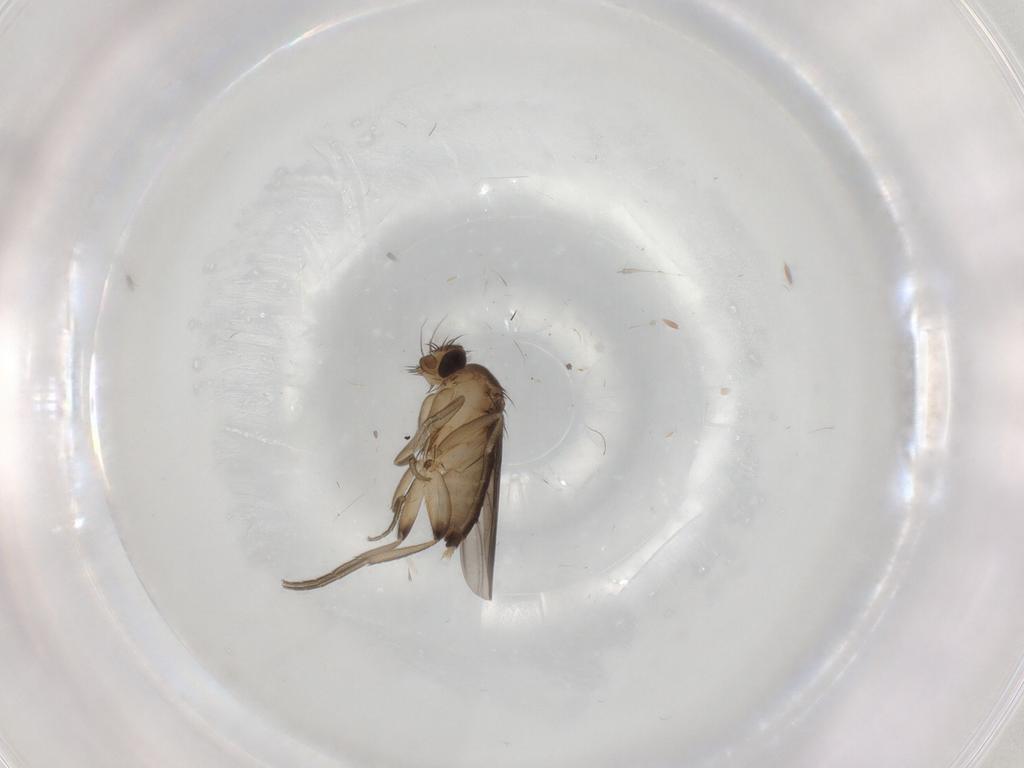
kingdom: Animalia
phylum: Arthropoda
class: Insecta
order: Diptera
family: Phoridae
